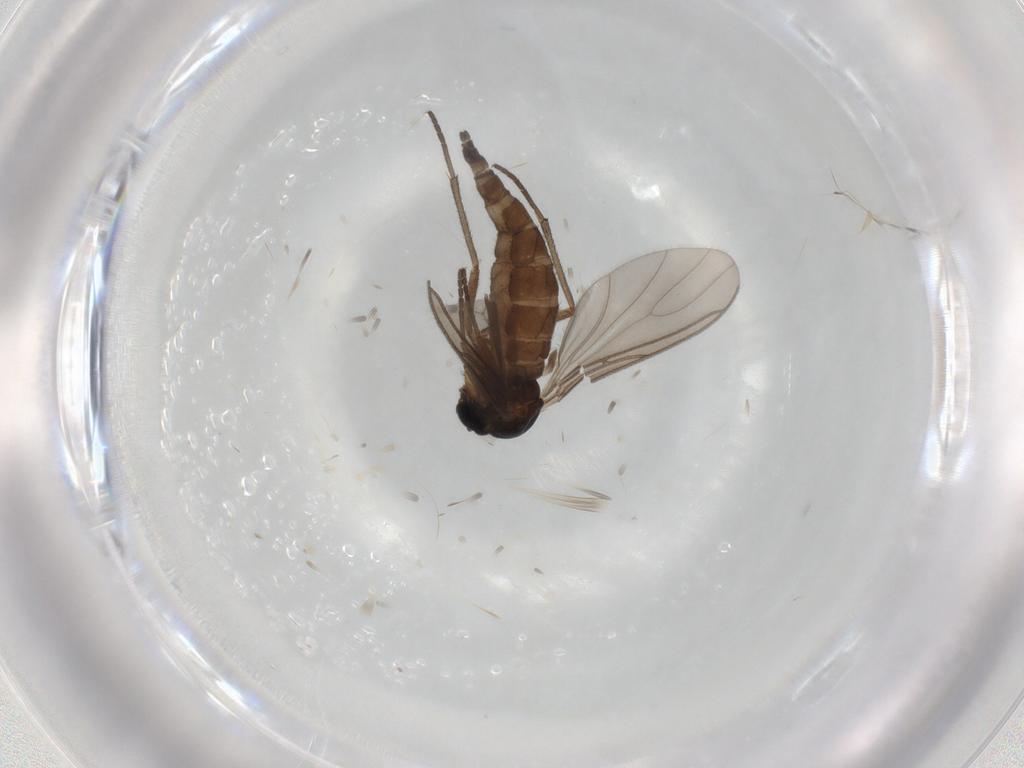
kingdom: Animalia
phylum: Arthropoda
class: Insecta
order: Diptera
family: Sciaridae
